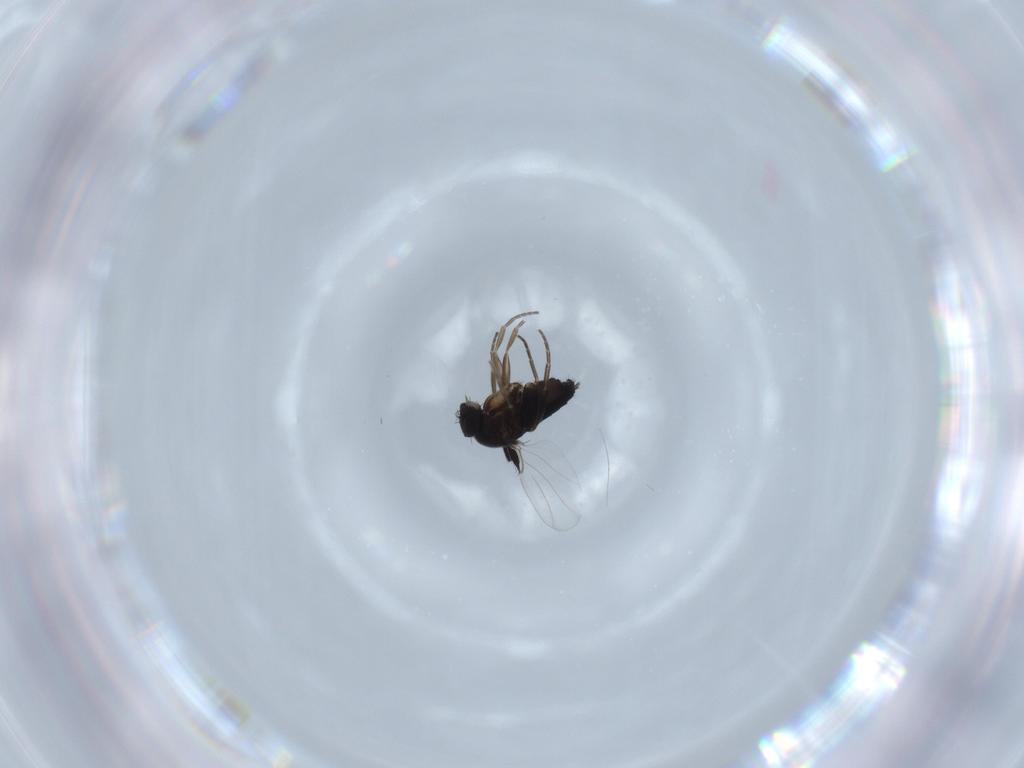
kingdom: Animalia
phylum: Arthropoda
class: Insecta
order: Diptera
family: Phoridae
